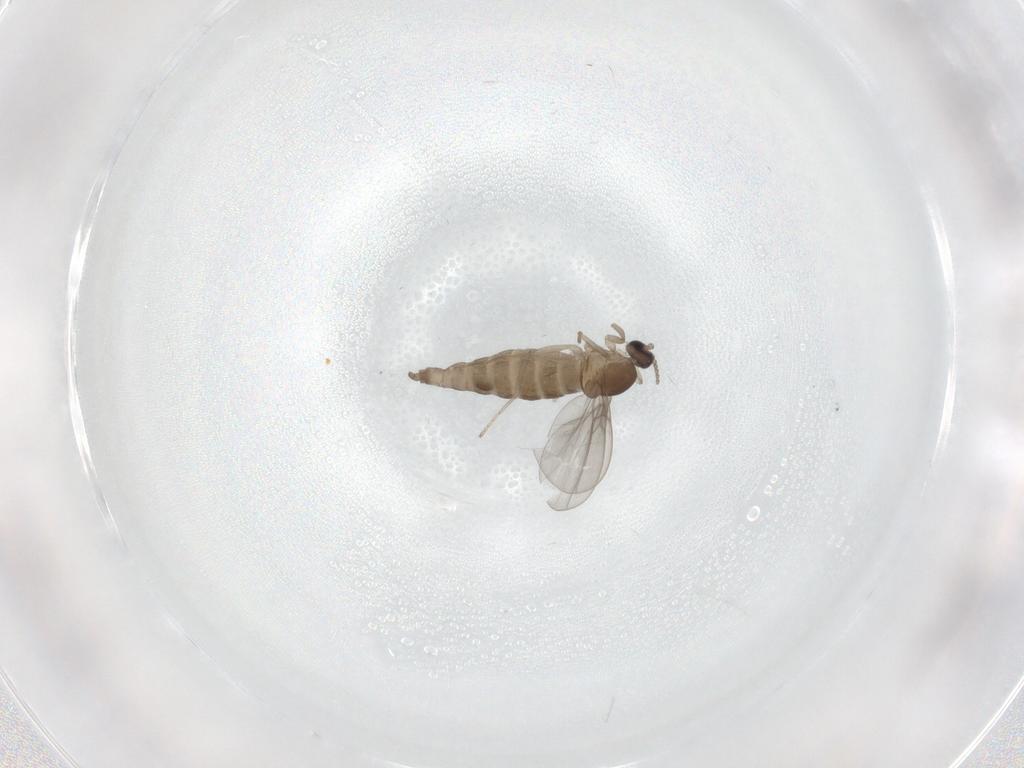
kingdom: Animalia
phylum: Arthropoda
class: Insecta
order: Diptera
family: Cecidomyiidae
